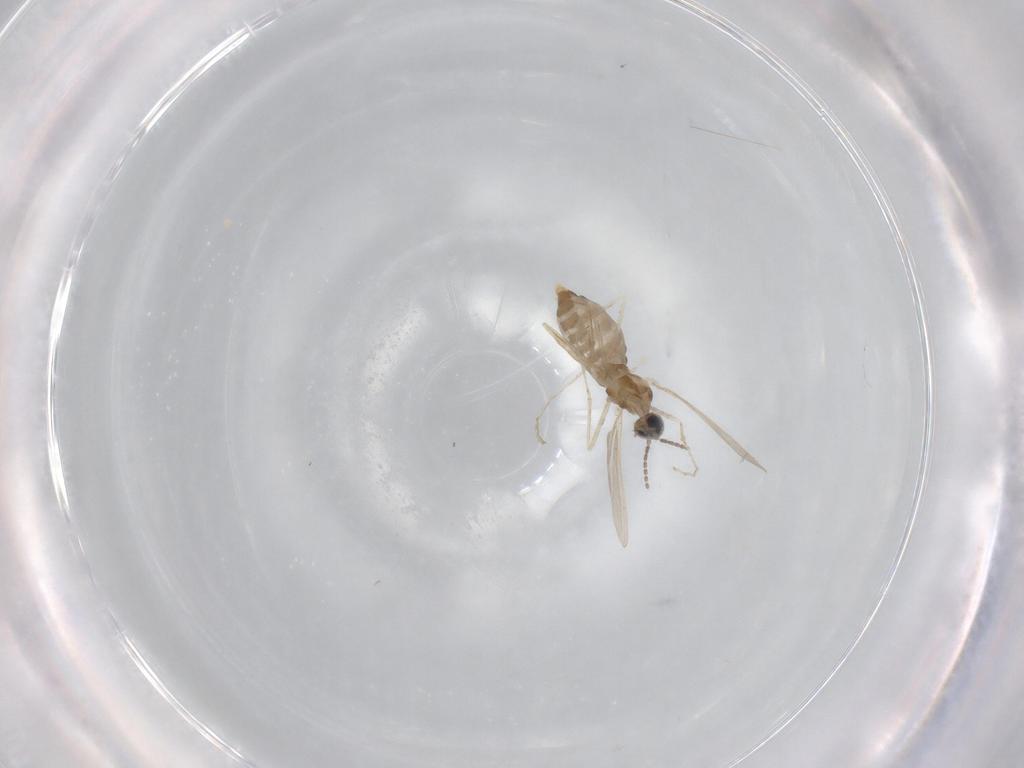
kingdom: Animalia
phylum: Arthropoda
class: Insecta
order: Diptera
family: Cecidomyiidae
